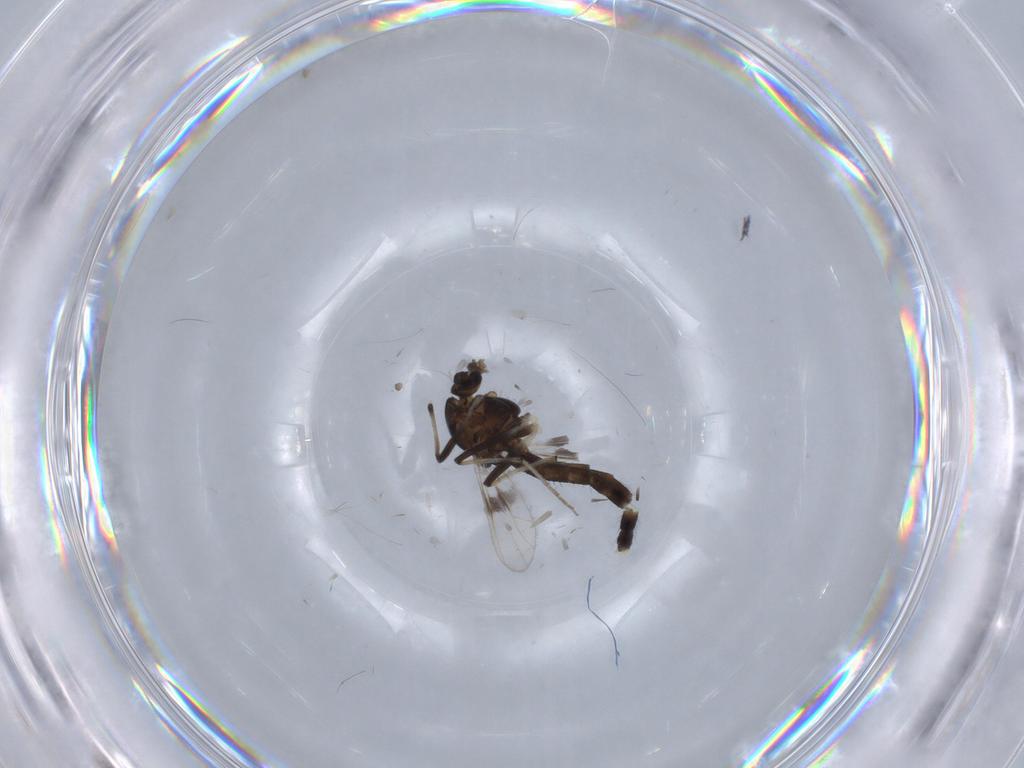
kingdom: Animalia
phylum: Arthropoda
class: Insecta
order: Diptera
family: Chironomidae
